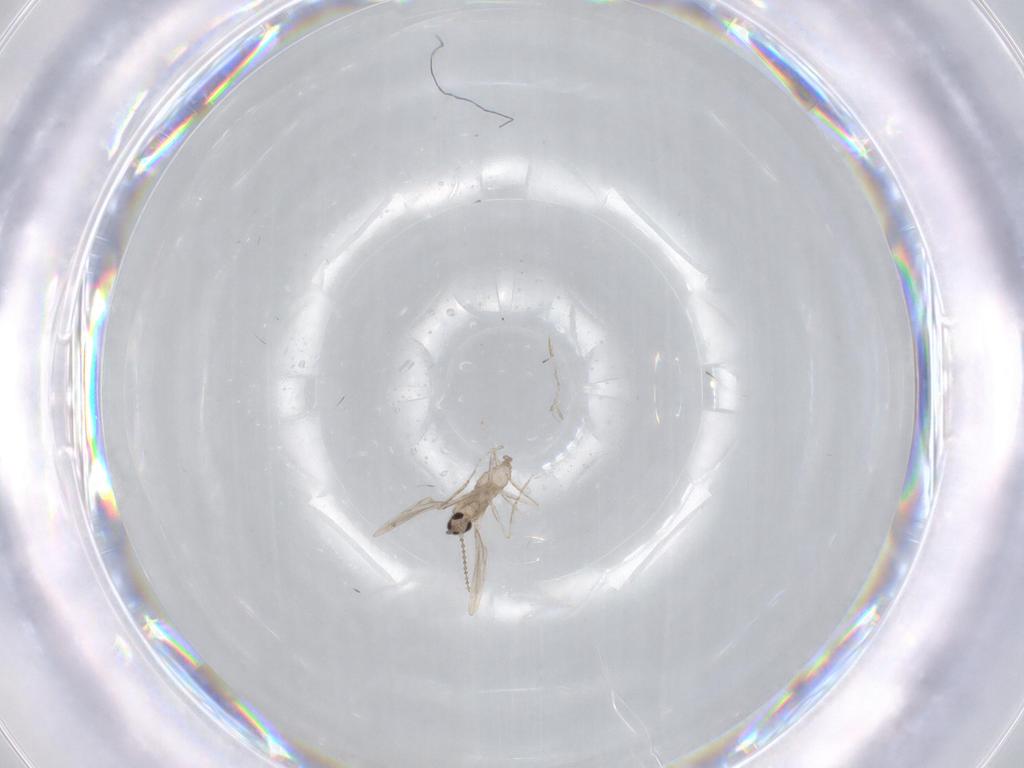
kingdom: Animalia
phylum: Arthropoda
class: Insecta
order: Diptera
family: Cecidomyiidae
